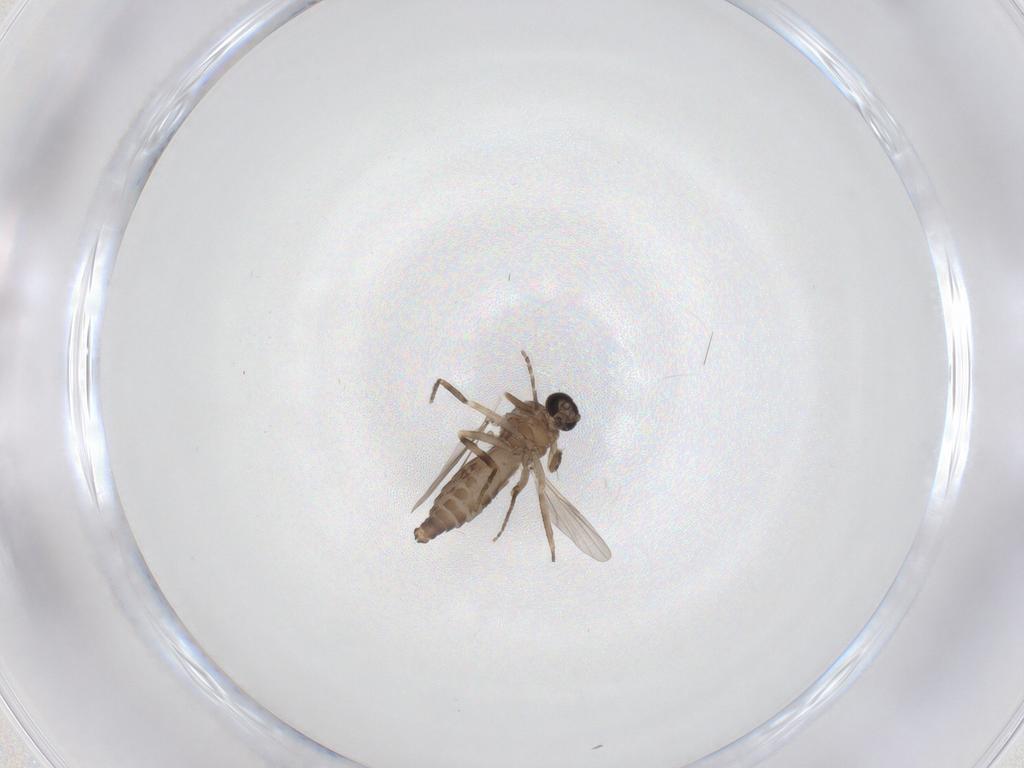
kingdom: Animalia
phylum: Arthropoda
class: Insecta
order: Diptera
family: Ceratopogonidae
